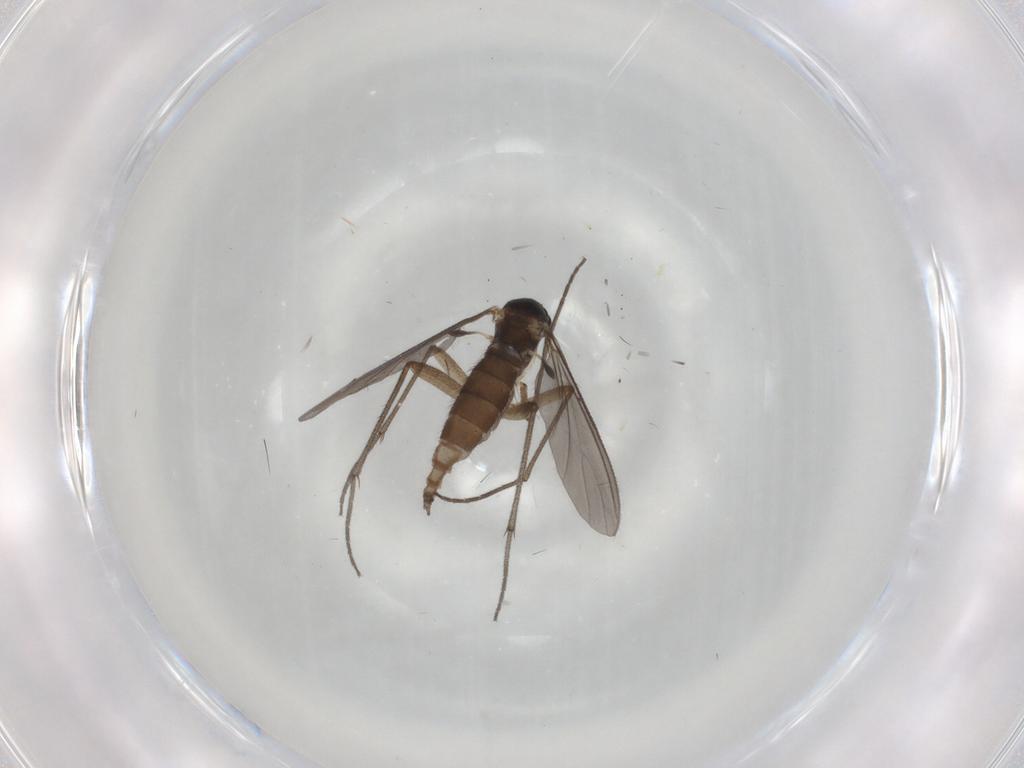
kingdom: Animalia
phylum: Arthropoda
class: Insecta
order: Diptera
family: Sciaridae
